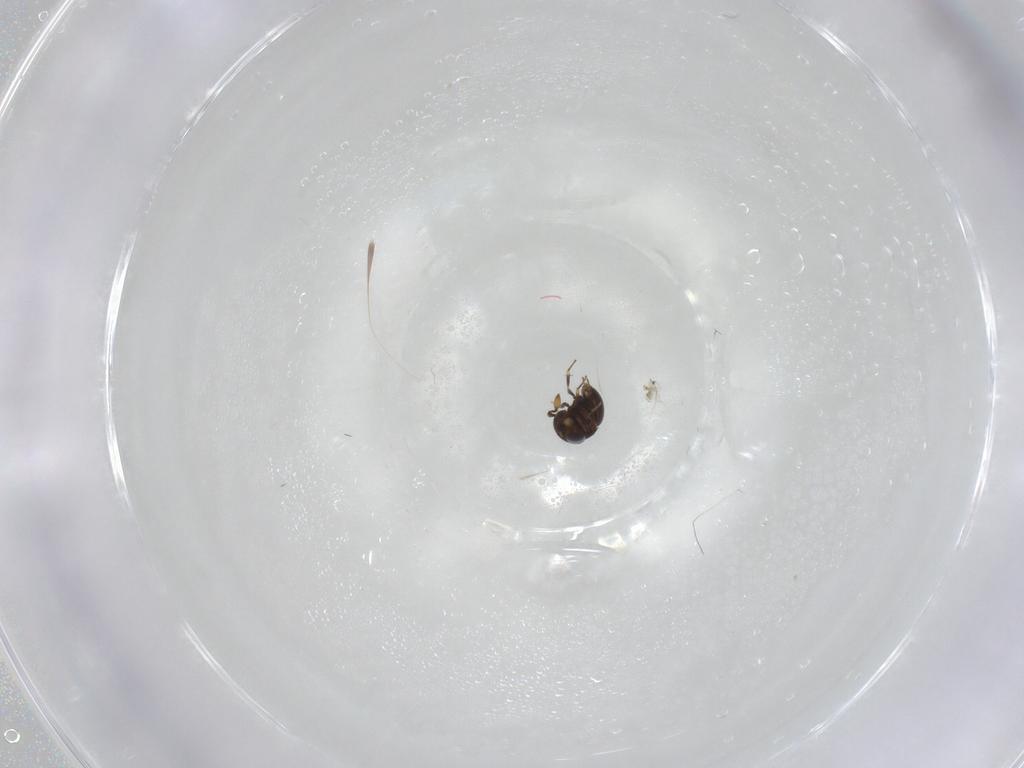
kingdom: Animalia
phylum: Arthropoda
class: Insecta
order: Hymenoptera
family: Scelionidae
